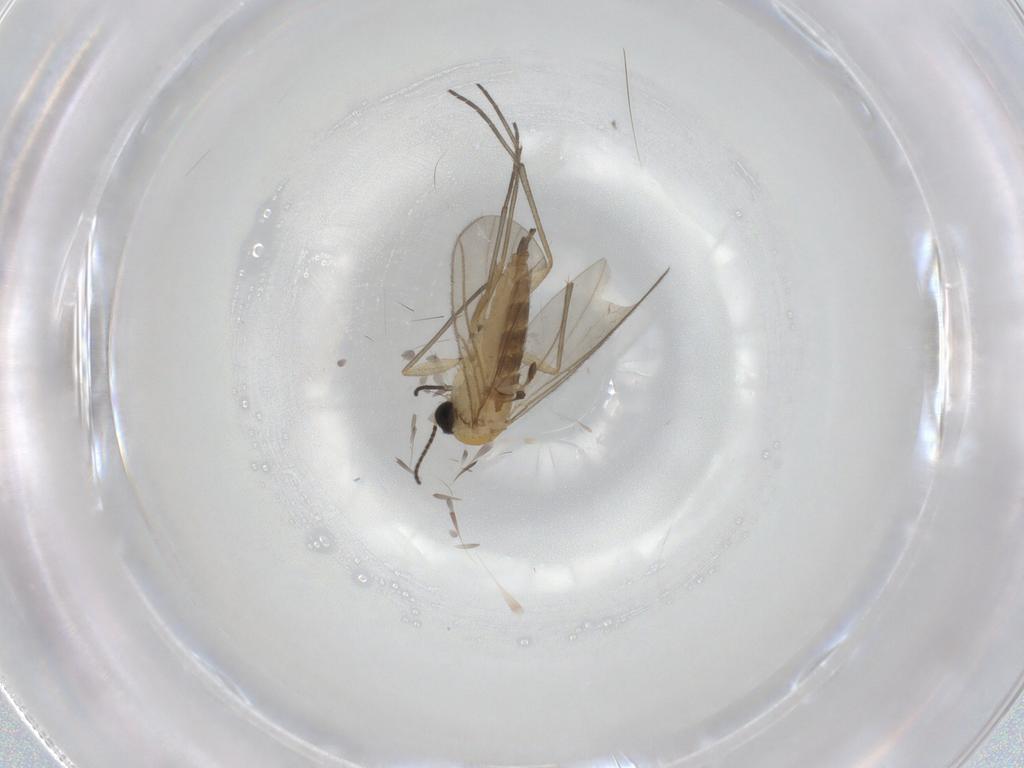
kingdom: Animalia
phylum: Arthropoda
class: Insecta
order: Diptera
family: Sciaridae
